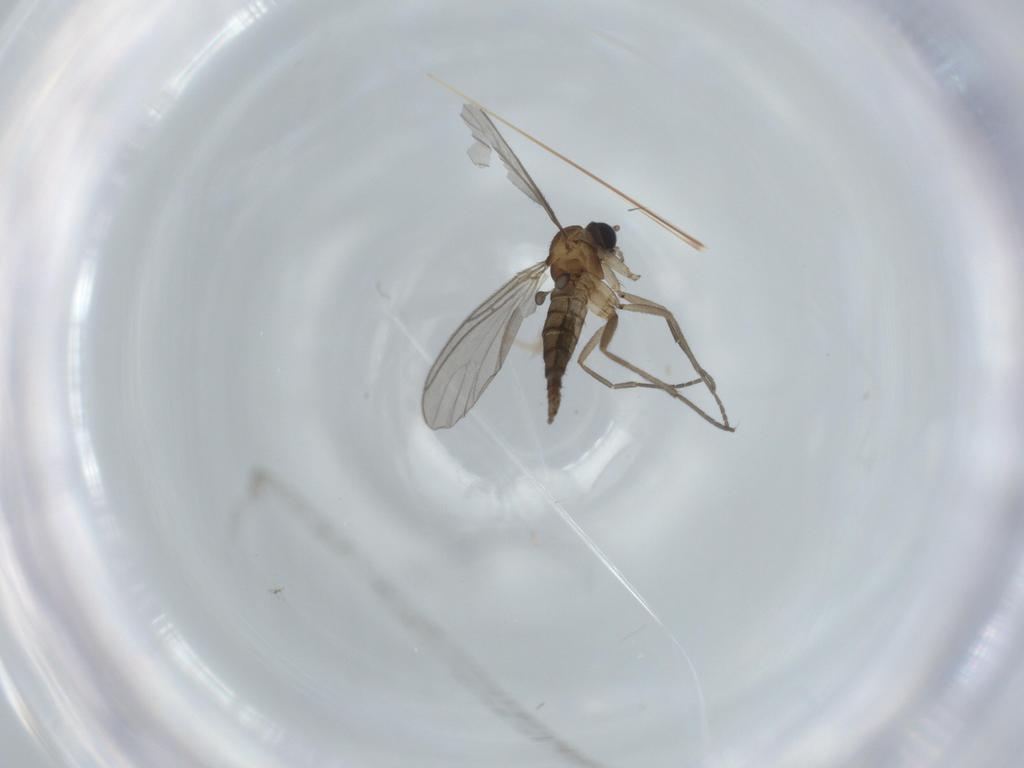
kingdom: Animalia
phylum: Arthropoda
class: Insecta
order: Diptera
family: Sciaridae
